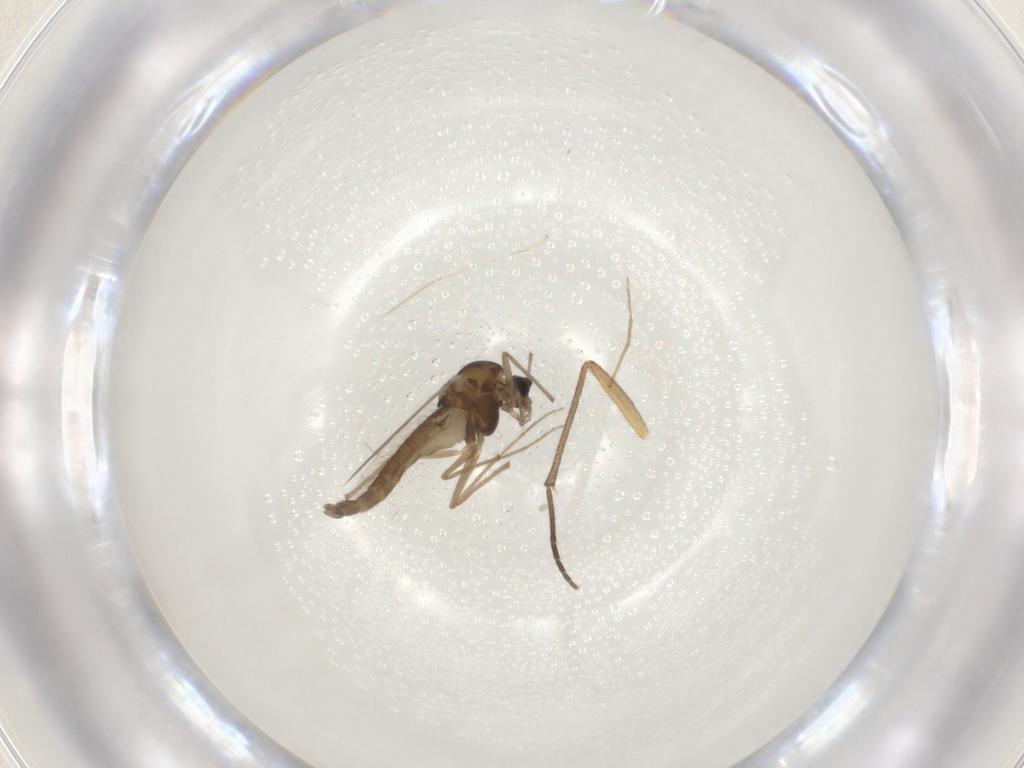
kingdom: Animalia
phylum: Arthropoda
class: Insecta
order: Diptera
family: Chironomidae
